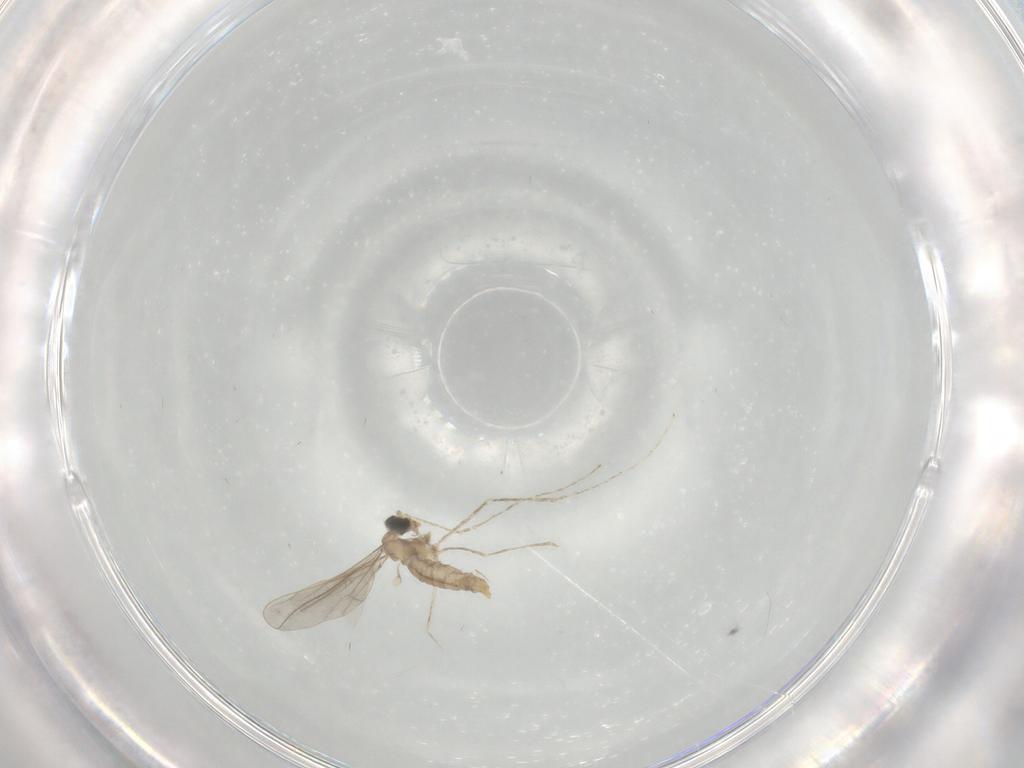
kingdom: Animalia
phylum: Arthropoda
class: Insecta
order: Diptera
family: Cecidomyiidae
